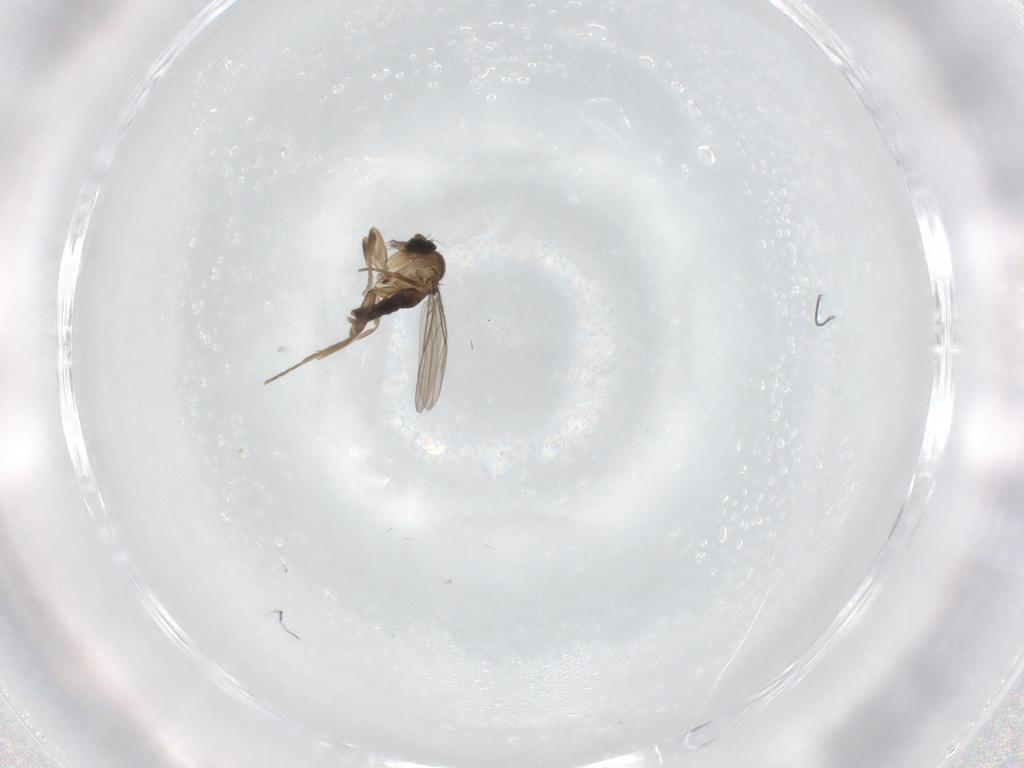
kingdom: Animalia
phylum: Arthropoda
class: Insecta
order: Diptera
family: Phoridae
